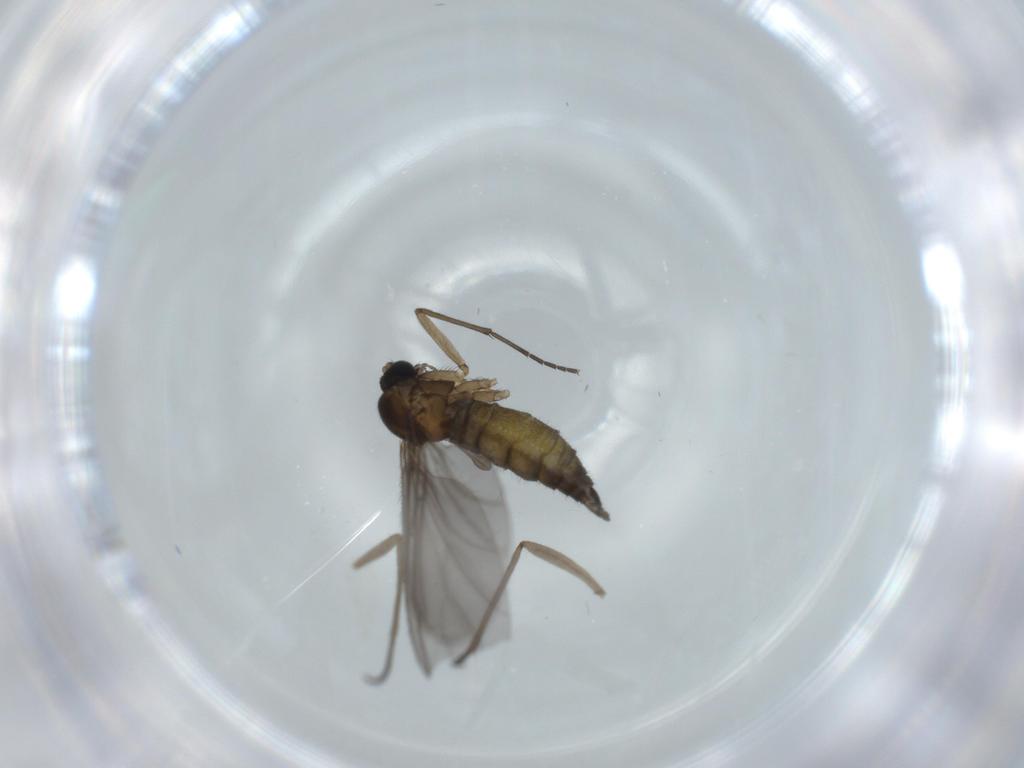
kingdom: Animalia
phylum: Arthropoda
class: Insecta
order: Diptera
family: Sciaridae
